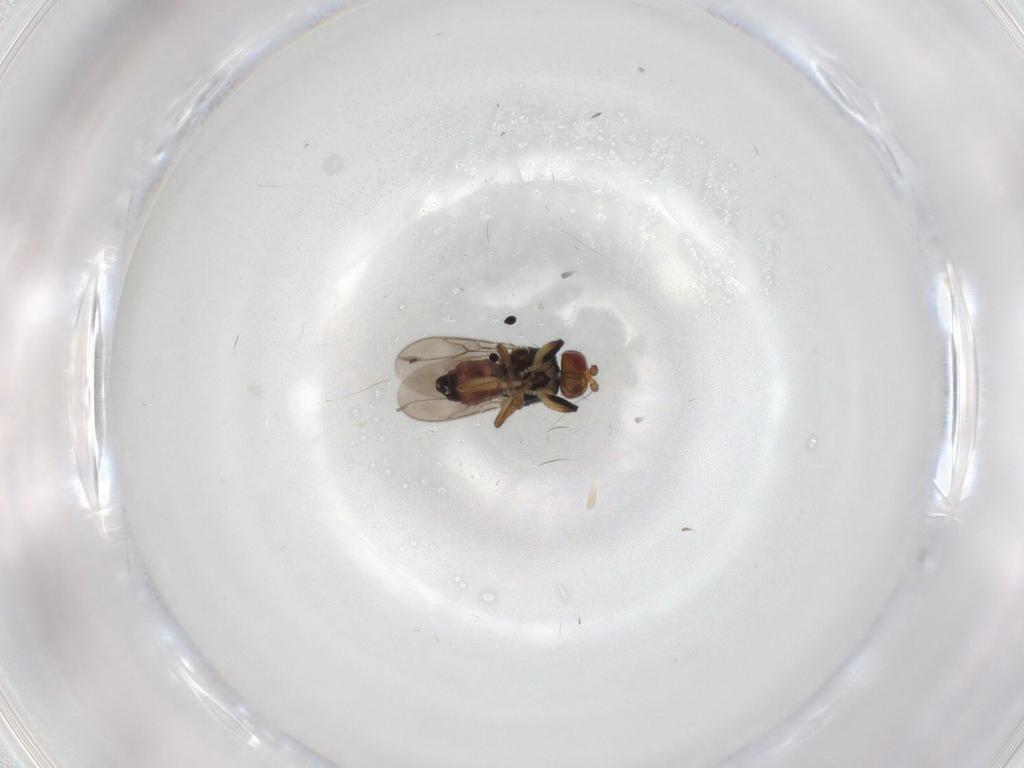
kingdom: Animalia
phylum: Arthropoda
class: Insecta
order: Diptera
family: Sphaeroceridae
